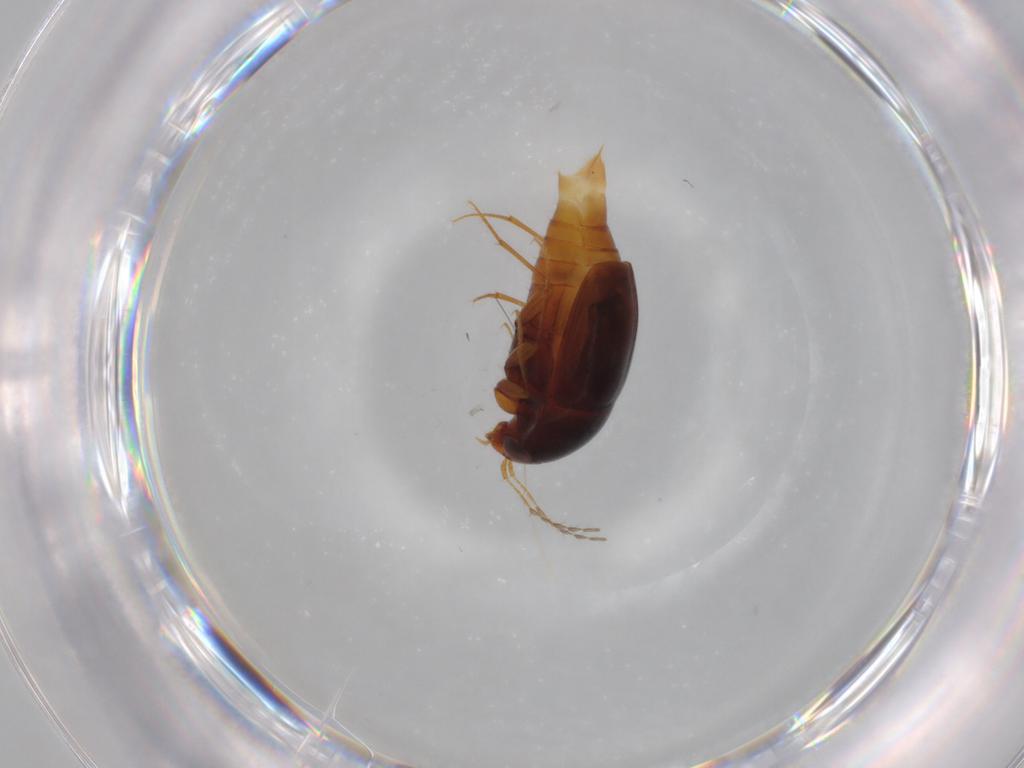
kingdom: Animalia
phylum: Arthropoda
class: Insecta
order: Coleoptera
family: Staphylinidae
